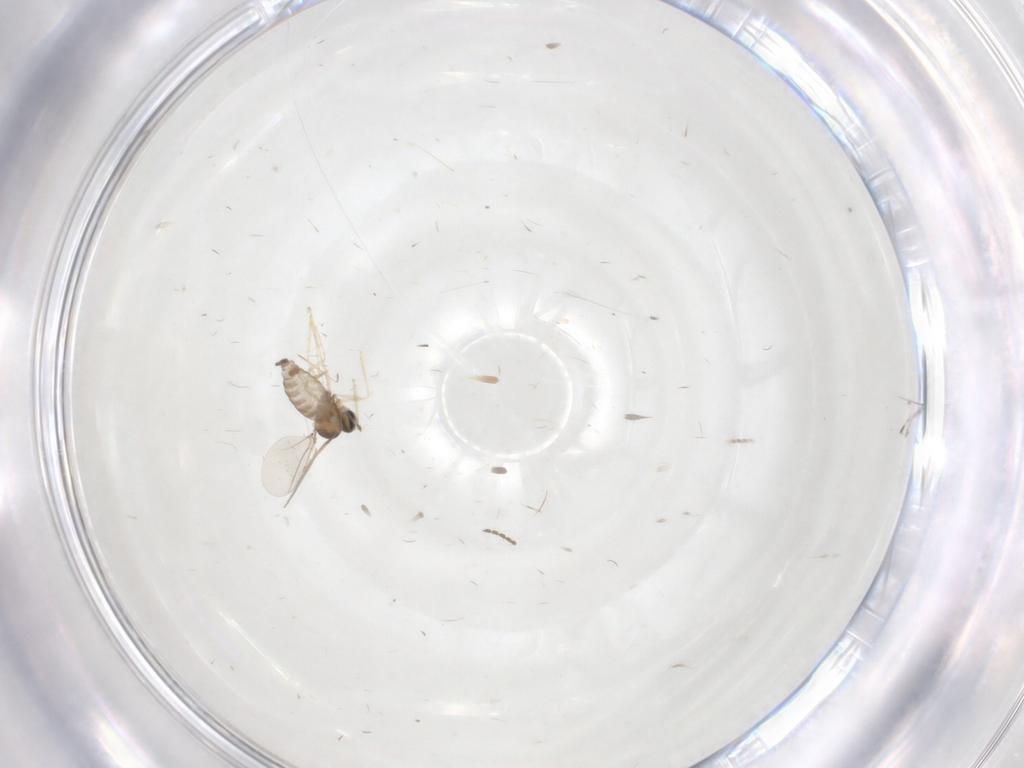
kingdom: Animalia
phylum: Arthropoda
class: Insecta
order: Diptera
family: Cecidomyiidae
